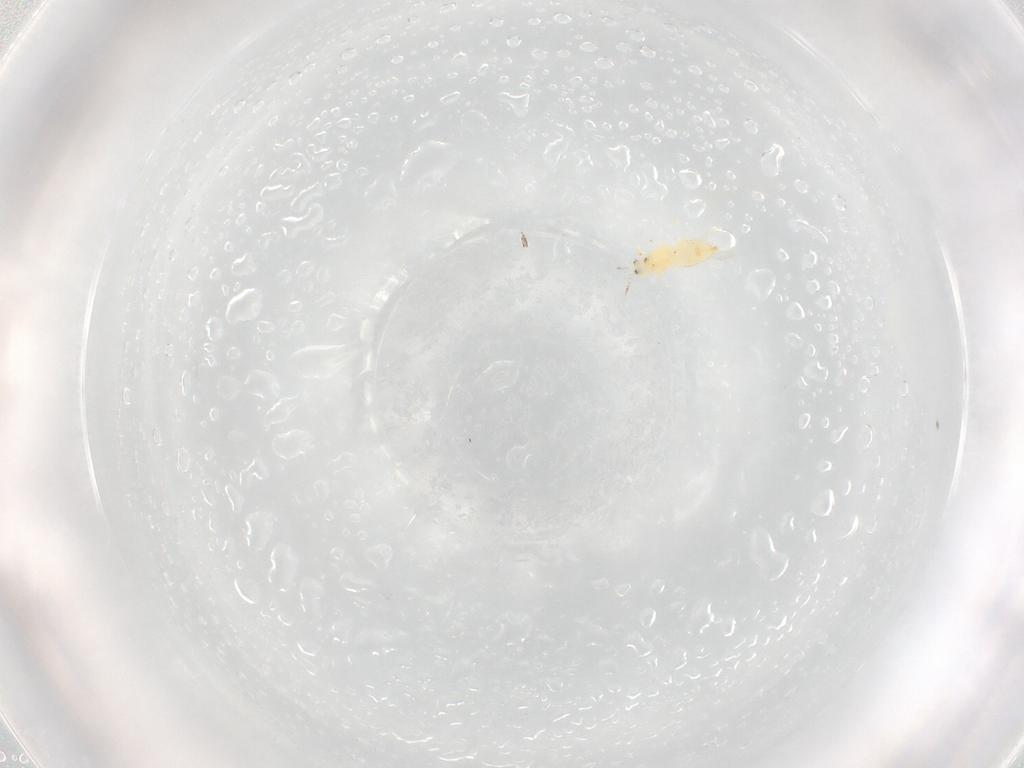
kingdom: Animalia
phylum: Arthropoda
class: Insecta
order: Thysanoptera
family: Thripidae
